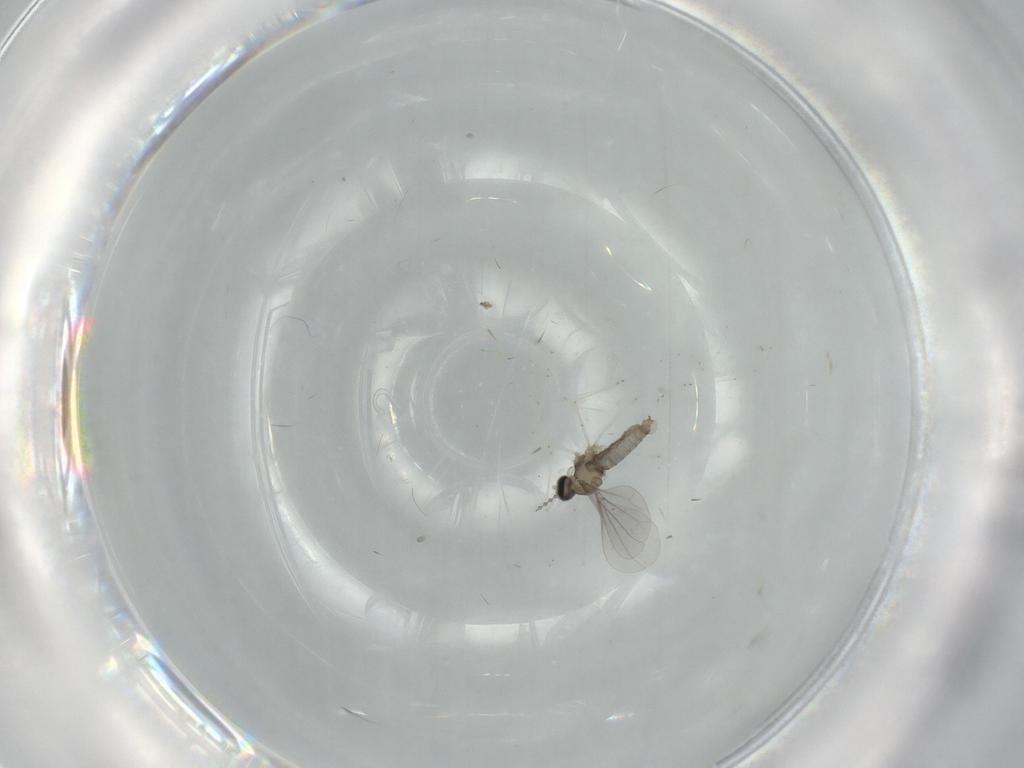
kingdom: Animalia
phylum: Arthropoda
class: Insecta
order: Diptera
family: Cecidomyiidae
